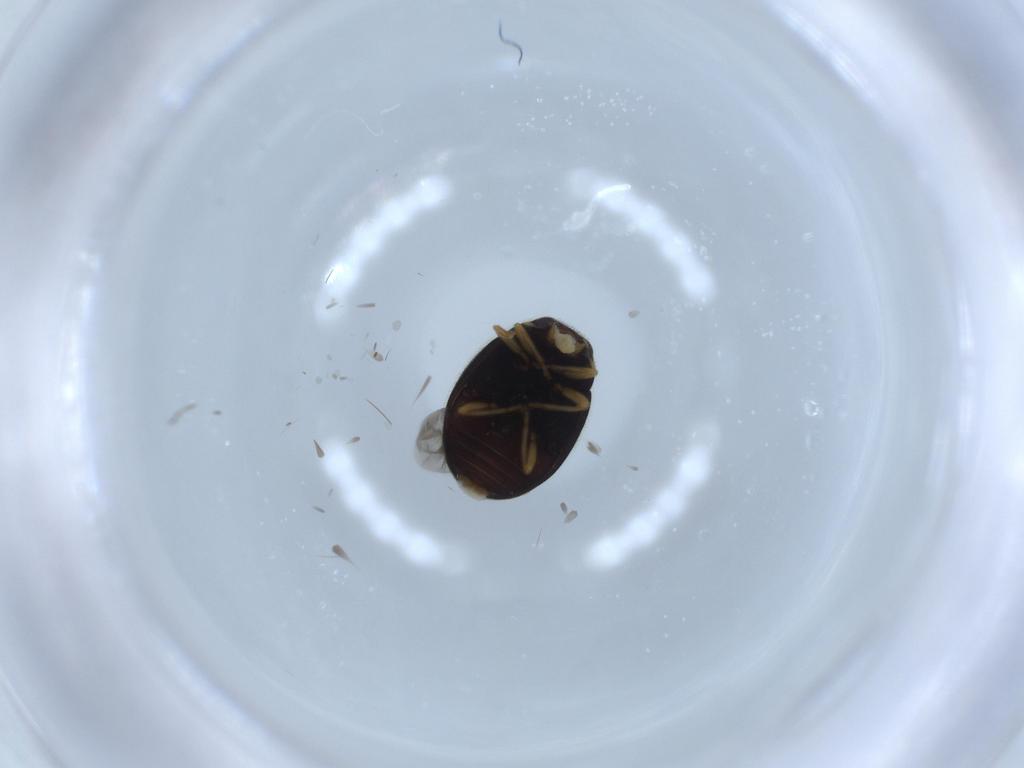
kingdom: Animalia
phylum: Arthropoda
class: Insecta
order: Coleoptera
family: Coccinellidae
